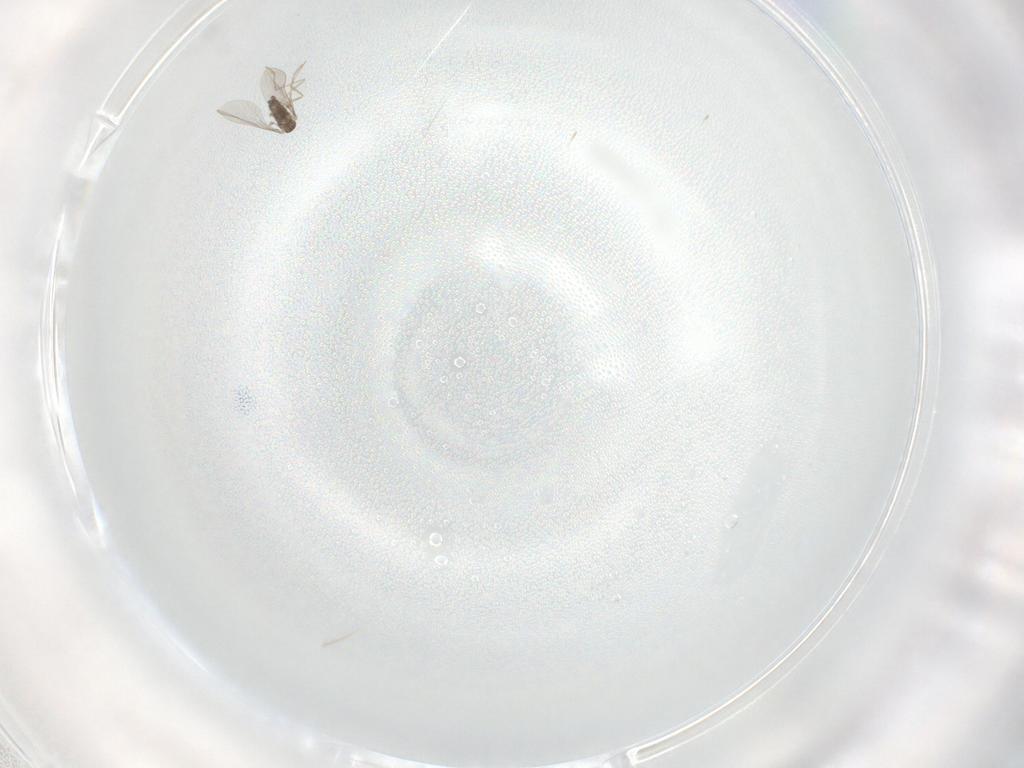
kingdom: Animalia
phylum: Arthropoda
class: Insecta
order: Diptera
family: Cecidomyiidae
